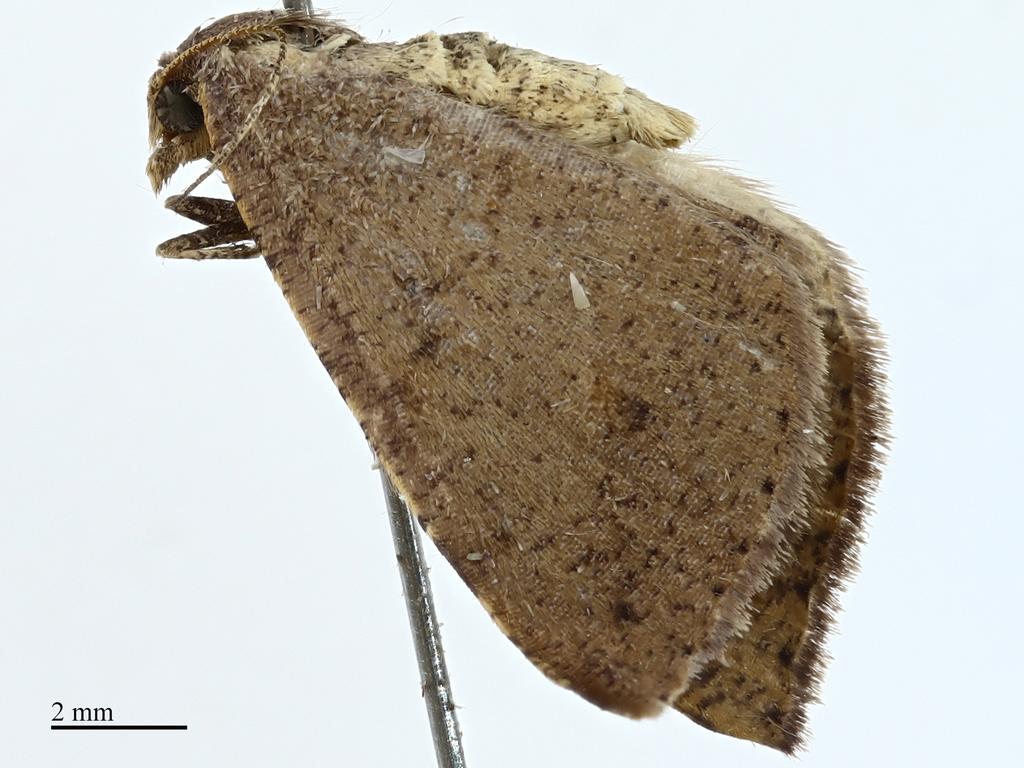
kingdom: Animalia
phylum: Arthropoda
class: Insecta
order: Lepidoptera
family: Geometridae
